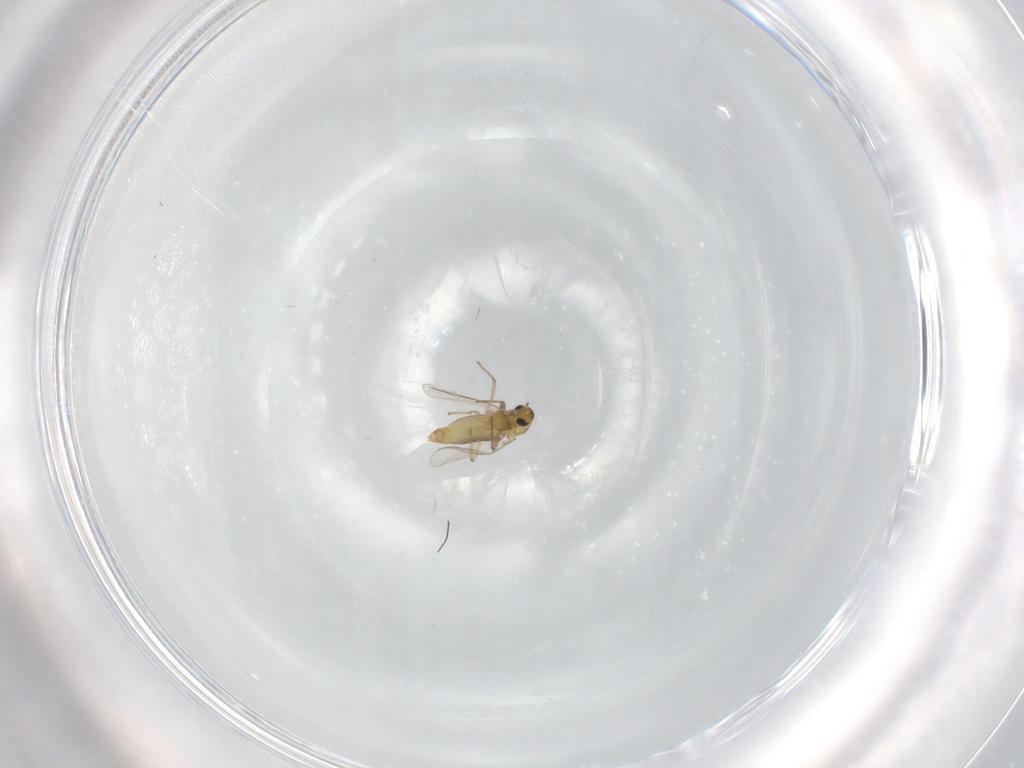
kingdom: Animalia
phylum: Arthropoda
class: Insecta
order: Diptera
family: Chironomidae
